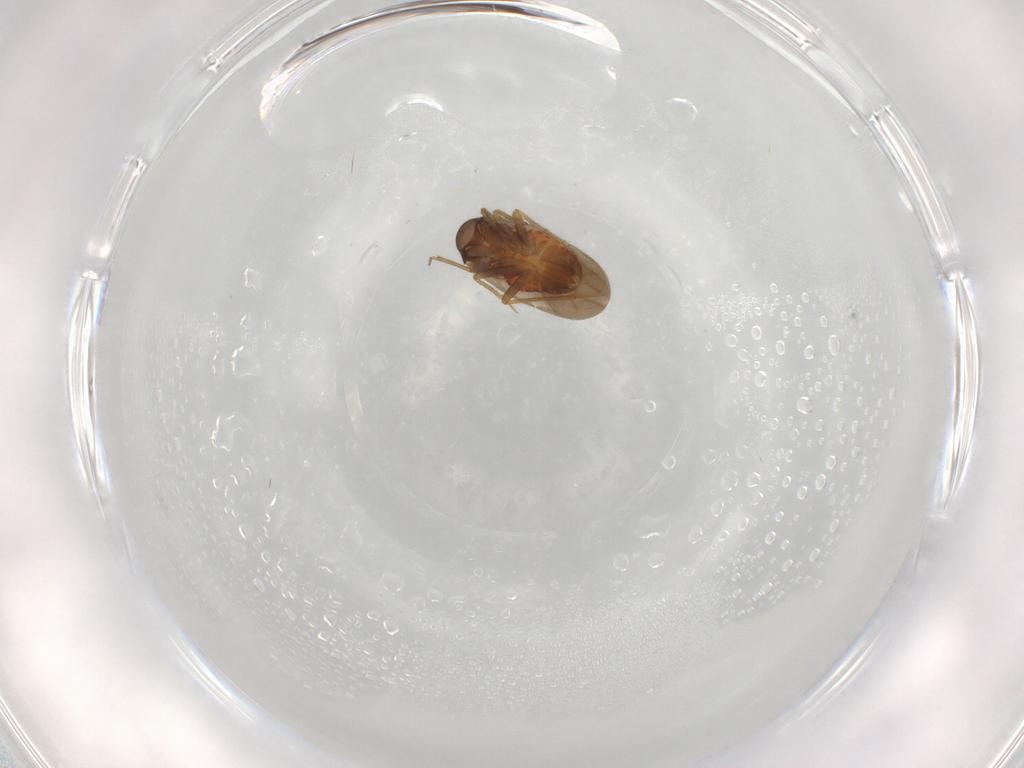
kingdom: Animalia
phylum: Arthropoda
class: Insecta
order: Hemiptera
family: Ceratocombidae
